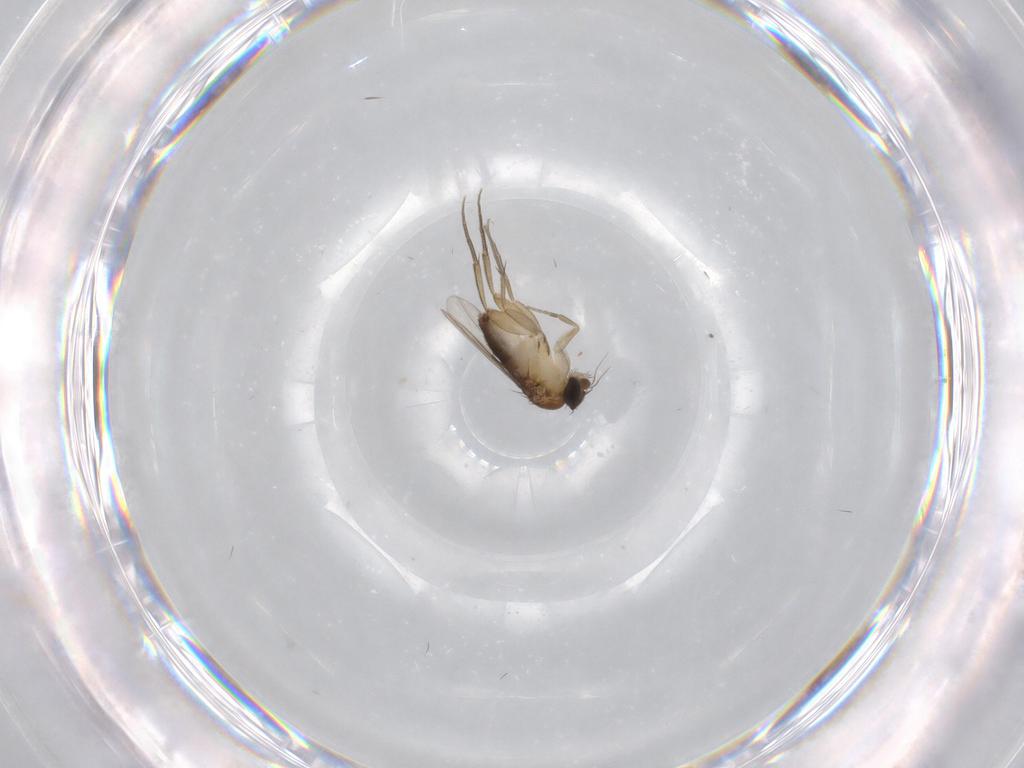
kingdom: Animalia
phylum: Arthropoda
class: Insecta
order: Diptera
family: Phoridae
